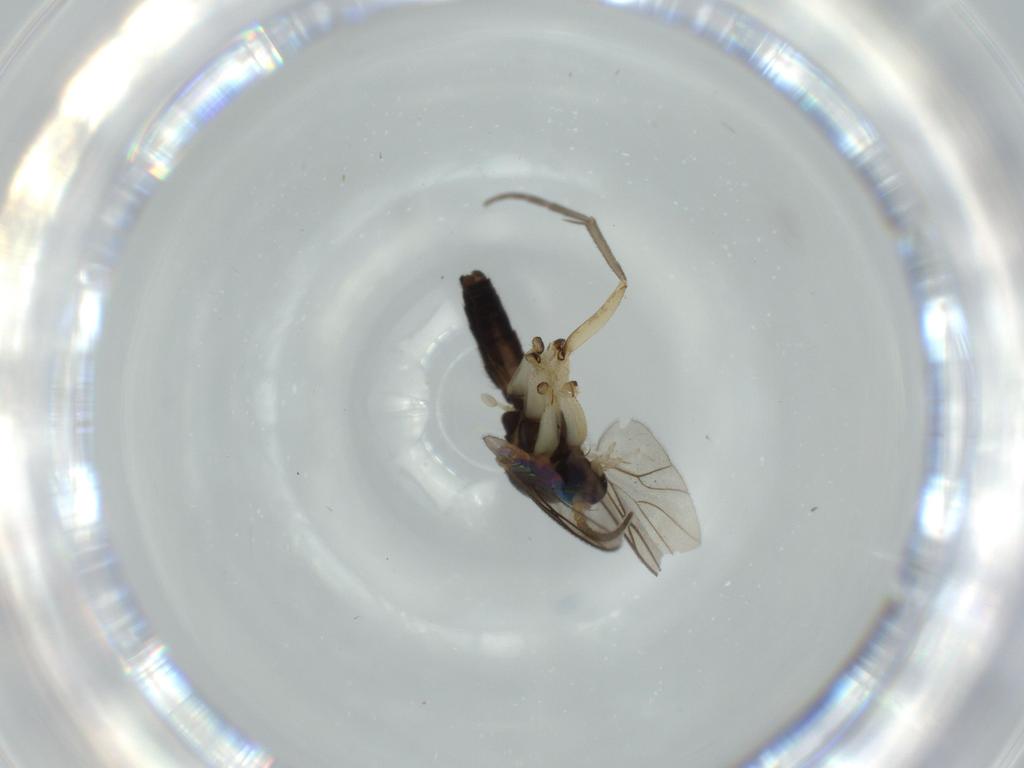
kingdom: Animalia
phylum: Arthropoda
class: Insecta
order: Diptera
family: Mycetophilidae
